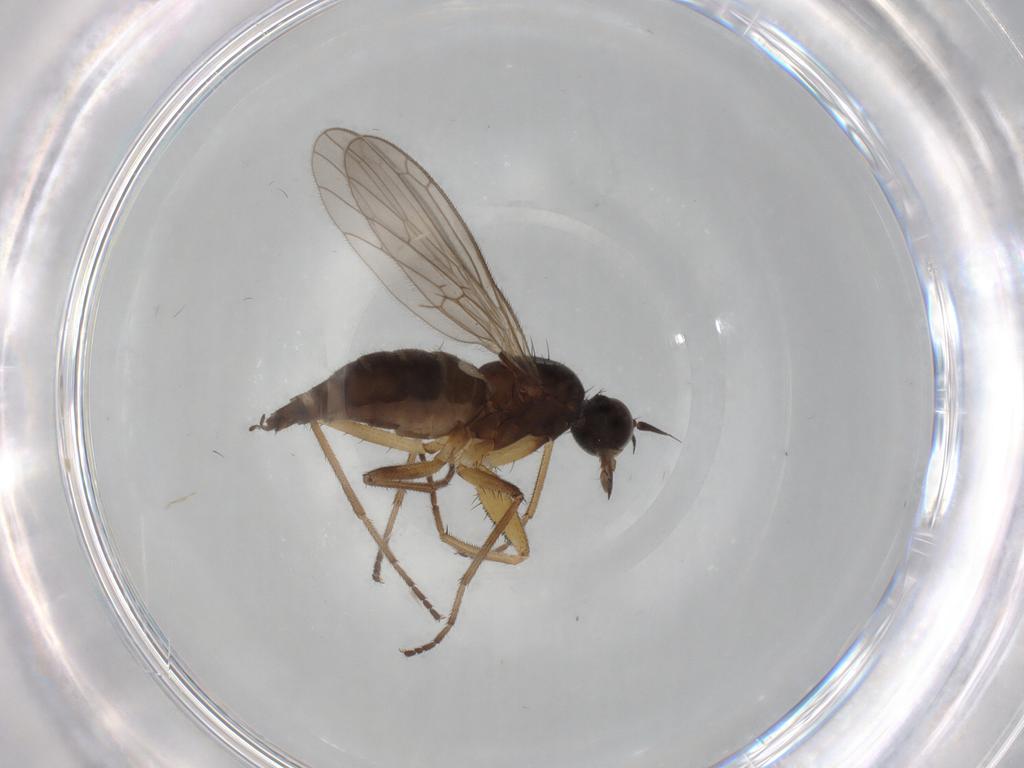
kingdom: Animalia
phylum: Arthropoda
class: Insecta
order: Diptera
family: Empididae
